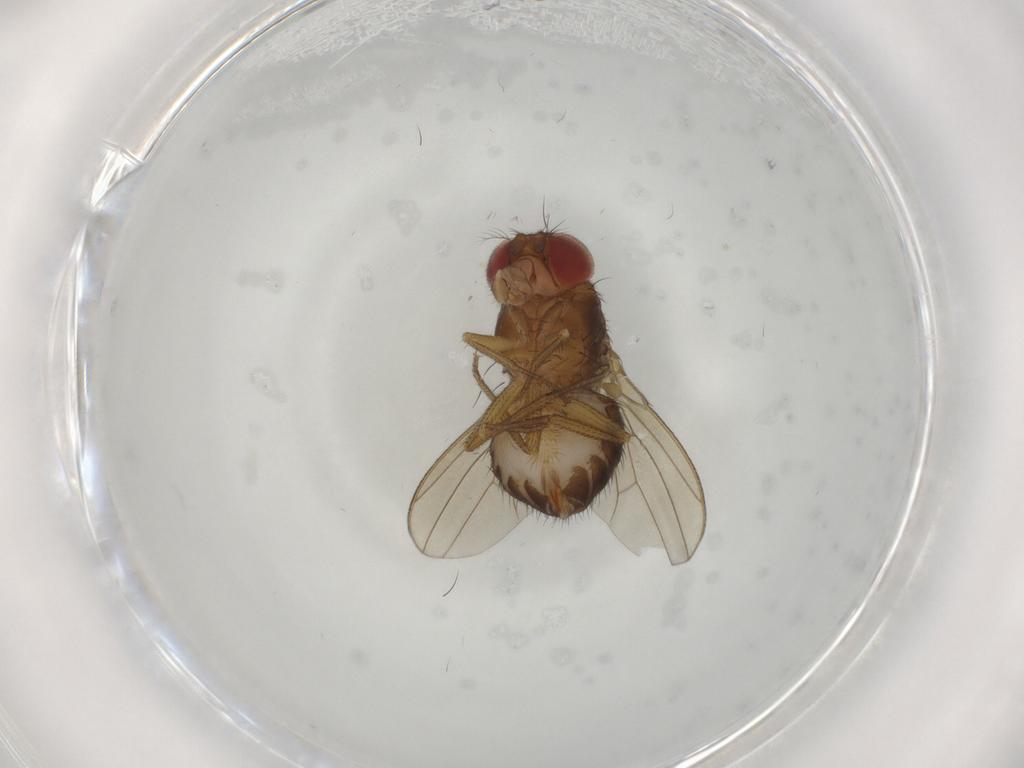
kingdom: Animalia
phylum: Arthropoda
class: Insecta
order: Diptera
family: Drosophilidae
